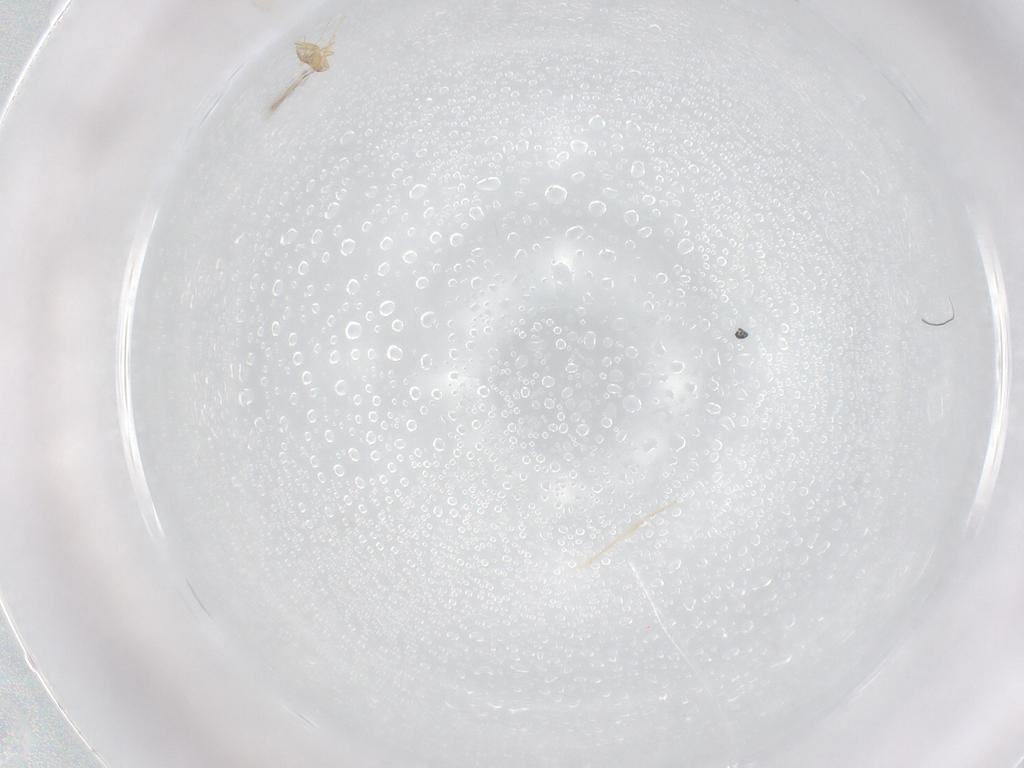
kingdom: Animalia
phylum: Arthropoda
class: Insecta
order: Hymenoptera
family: Mymaridae
